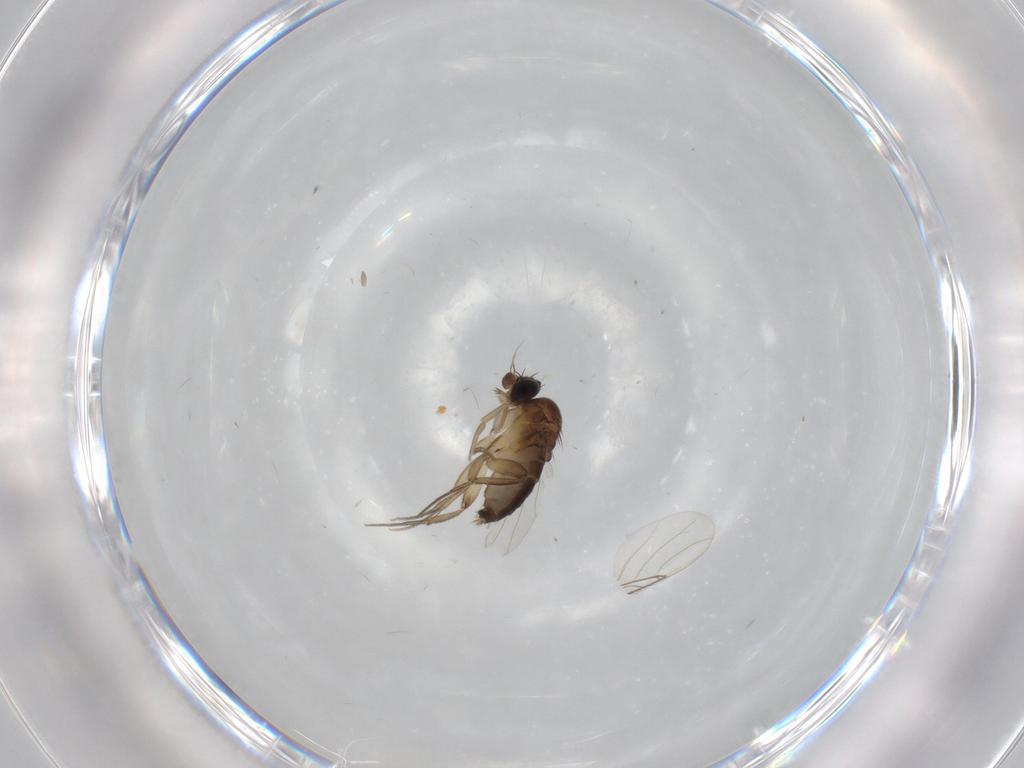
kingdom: Animalia
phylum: Arthropoda
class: Insecta
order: Diptera
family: Phoridae
